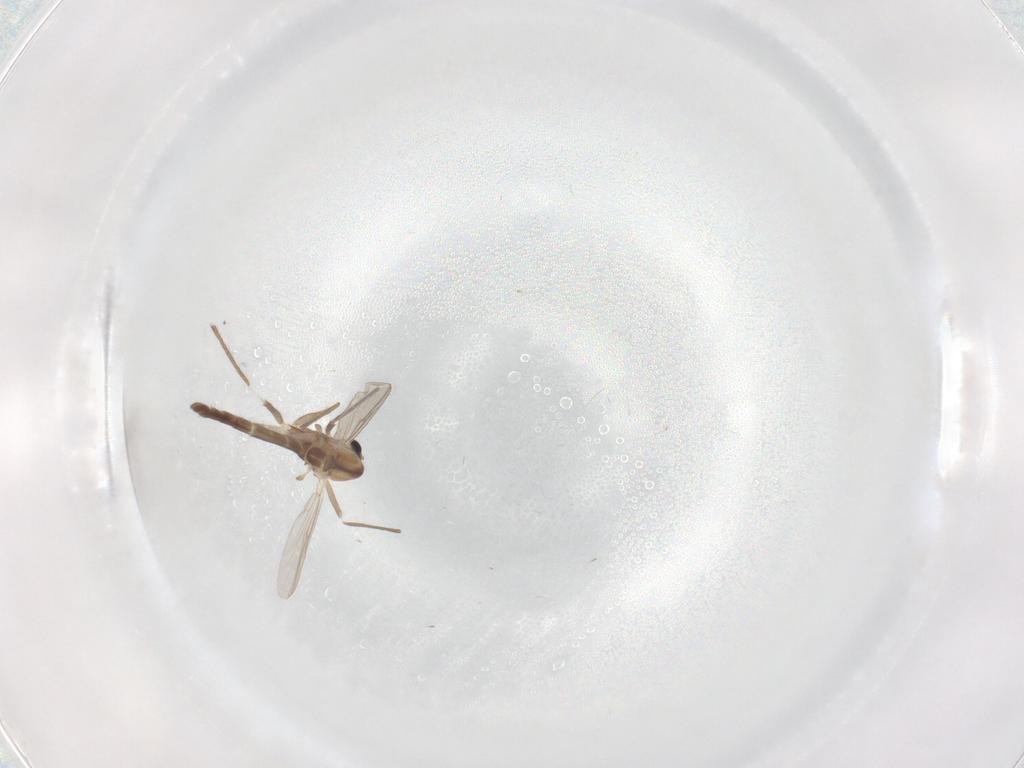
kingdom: Animalia
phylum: Arthropoda
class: Insecta
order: Diptera
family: Chironomidae
